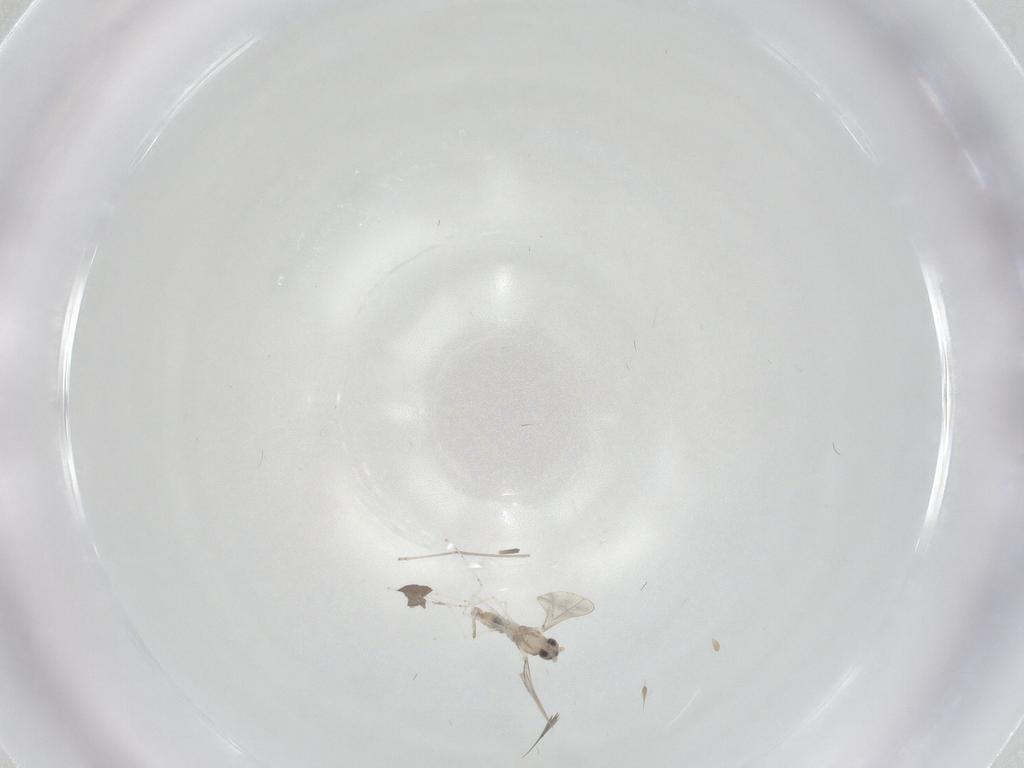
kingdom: Animalia
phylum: Arthropoda
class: Insecta
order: Diptera
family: Cecidomyiidae
